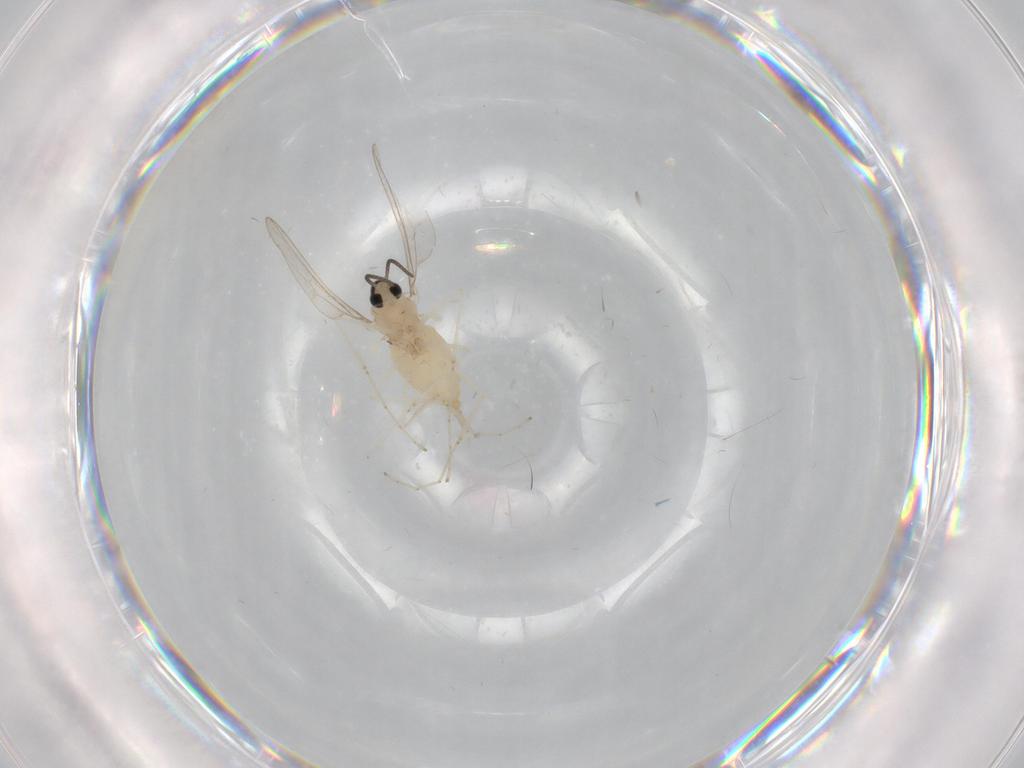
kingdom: Animalia
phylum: Arthropoda
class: Insecta
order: Diptera
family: Cecidomyiidae
